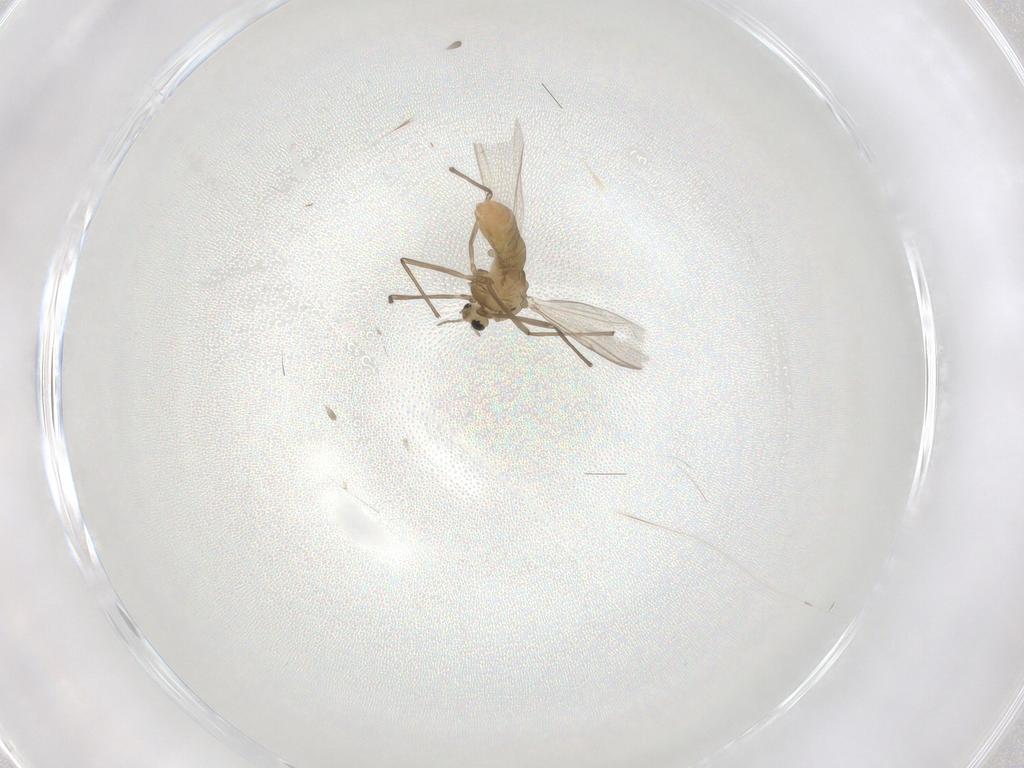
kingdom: Animalia
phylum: Arthropoda
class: Insecta
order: Diptera
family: Chironomidae
